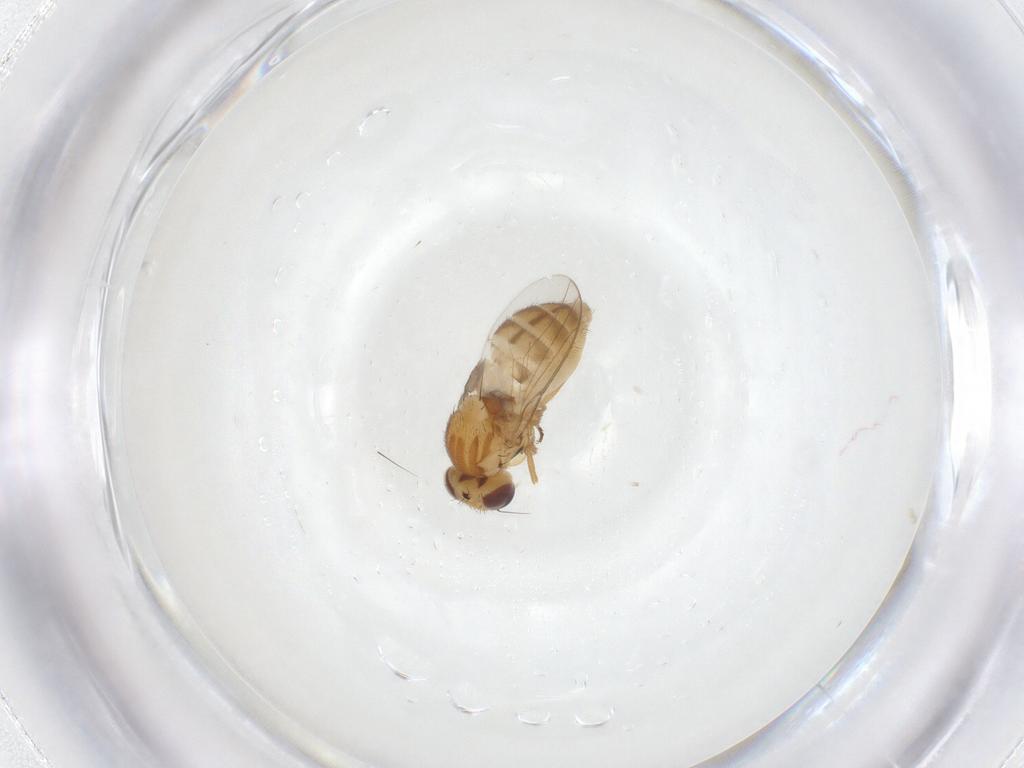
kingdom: Animalia
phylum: Arthropoda
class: Insecta
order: Diptera
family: Chloropidae
